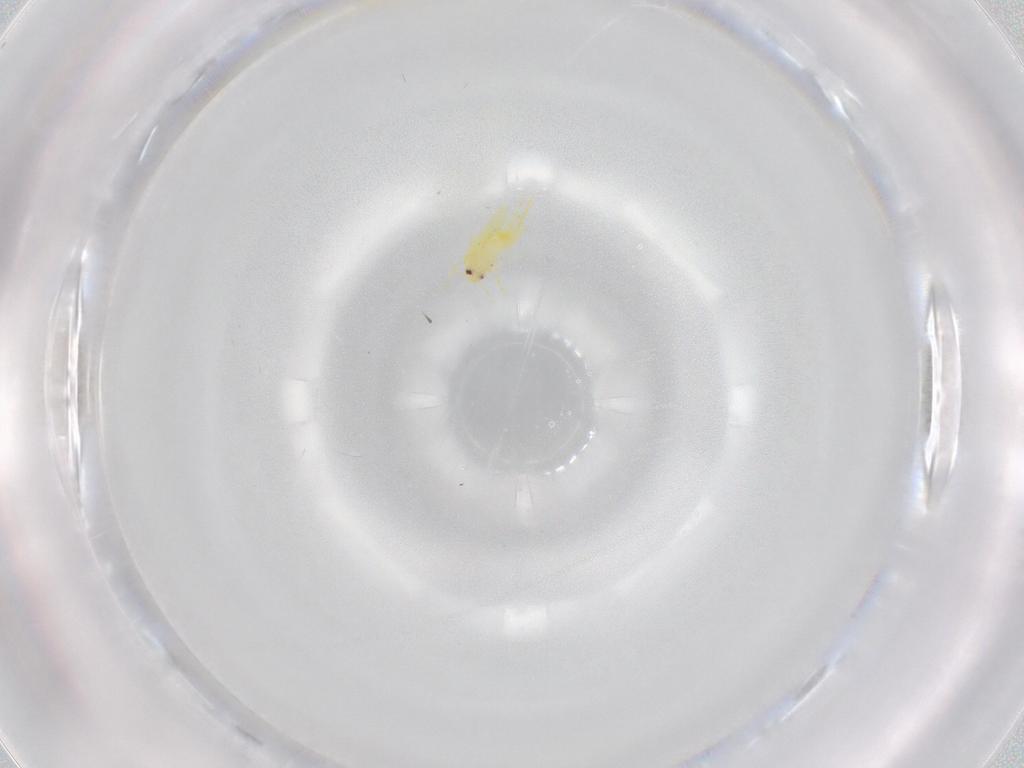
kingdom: Animalia
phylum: Arthropoda
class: Insecta
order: Hemiptera
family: Aleyrodidae
